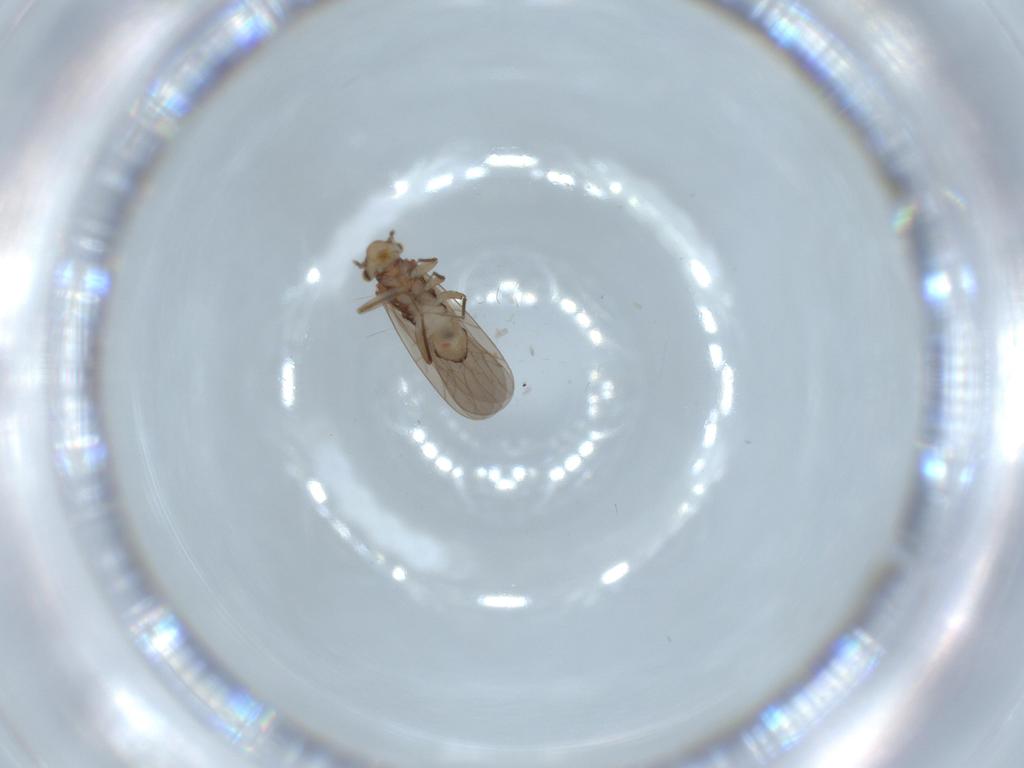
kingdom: Animalia
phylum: Arthropoda
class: Insecta
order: Psocodea
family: Lepidopsocidae
